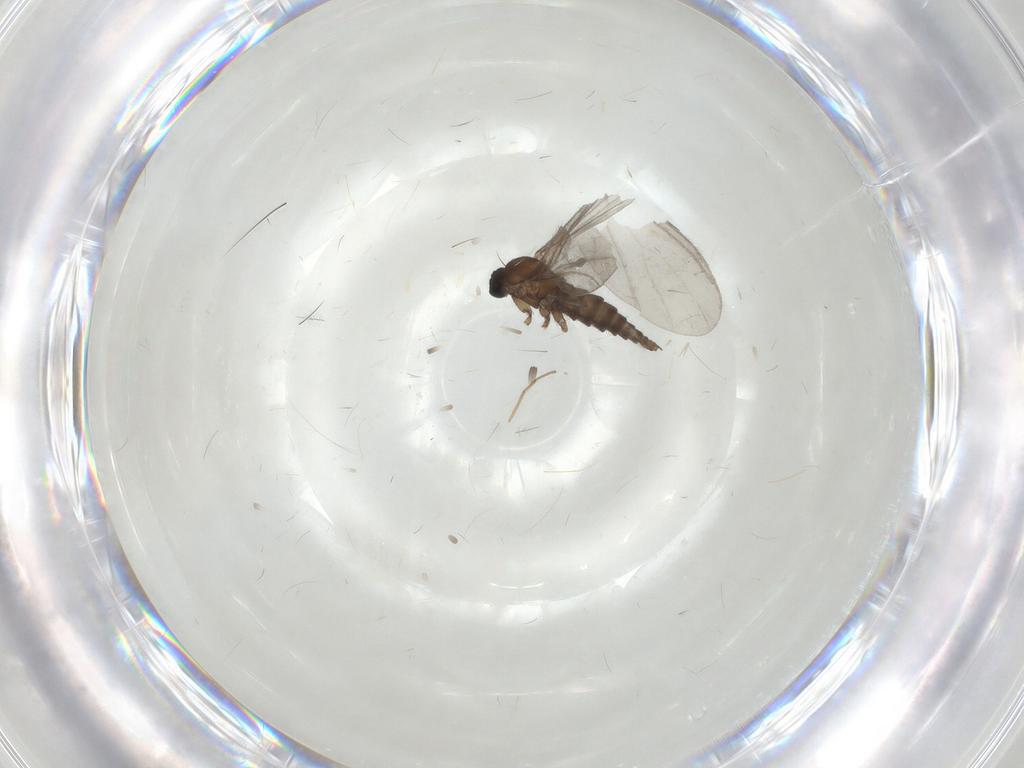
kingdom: Animalia
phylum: Arthropoda
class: Insecta
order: Diptera
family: Sciaridae
